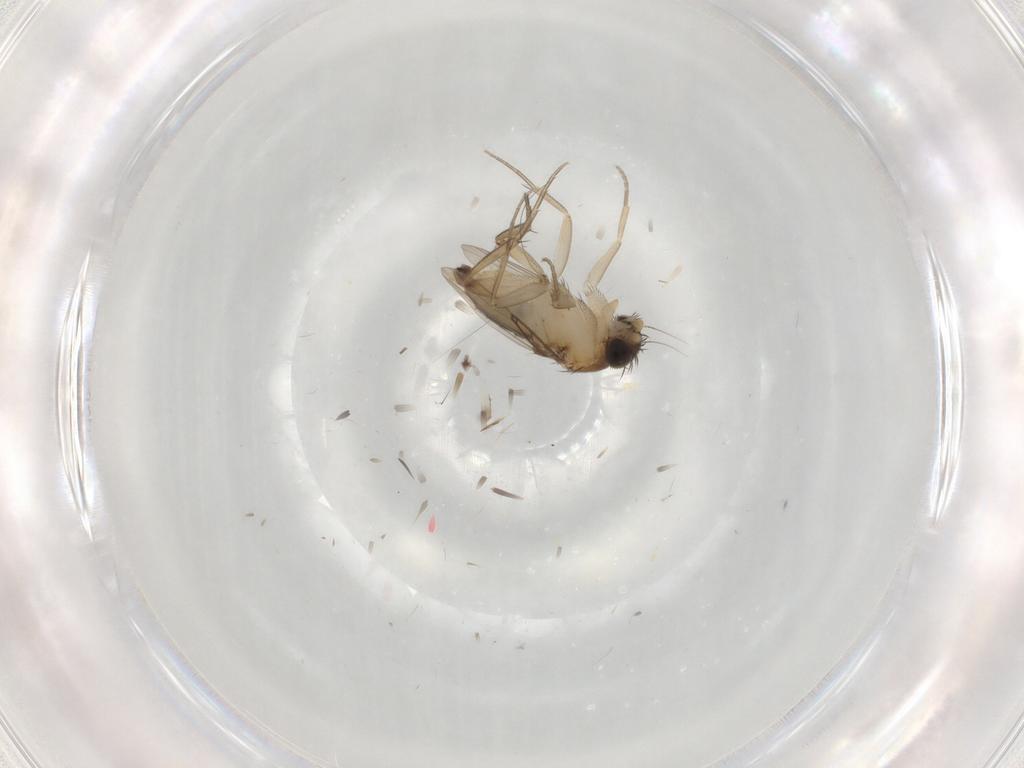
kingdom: Animalia
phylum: Arthropoda
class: Insecta
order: Diptera
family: Phoridae
